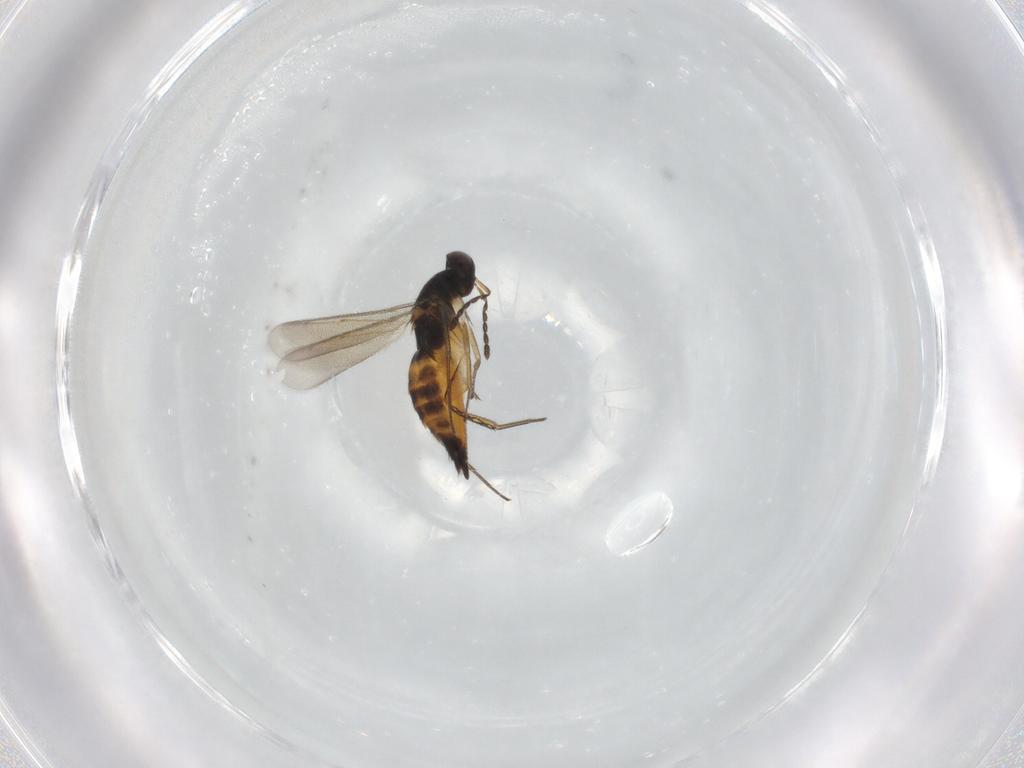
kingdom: Animalia
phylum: Arthropoda
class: Insecta
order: Hymenoptera
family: Eulophidae
